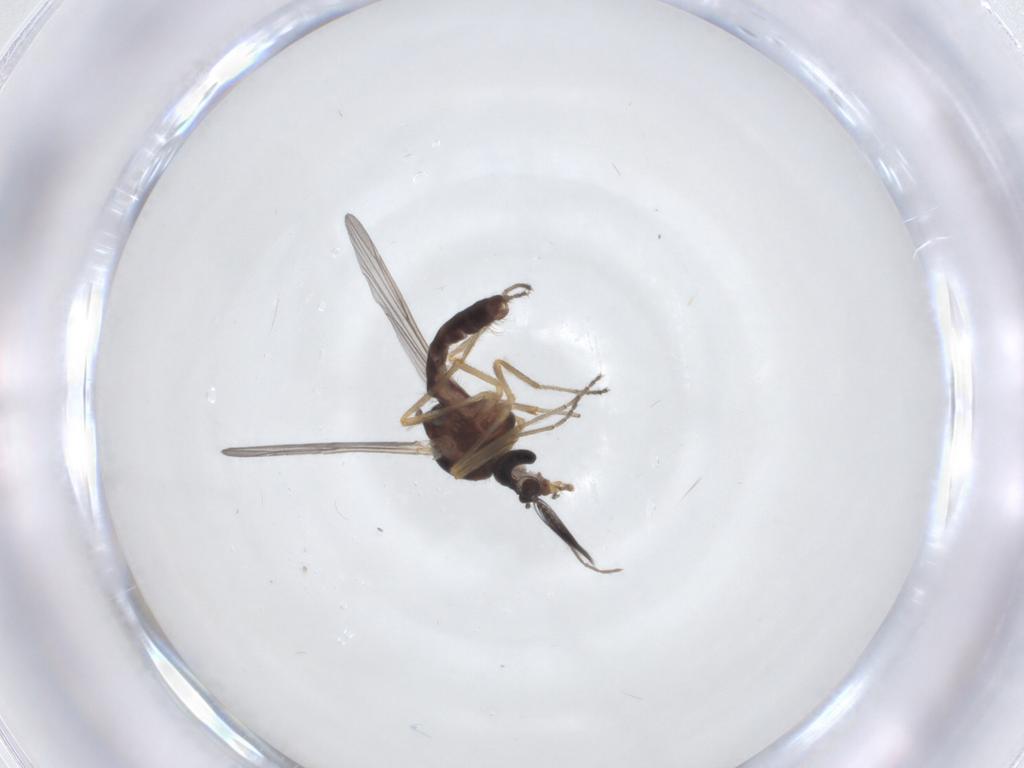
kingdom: Animalia
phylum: Arthropoda
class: Insecta
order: Diptera
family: Ceratopogonidae
